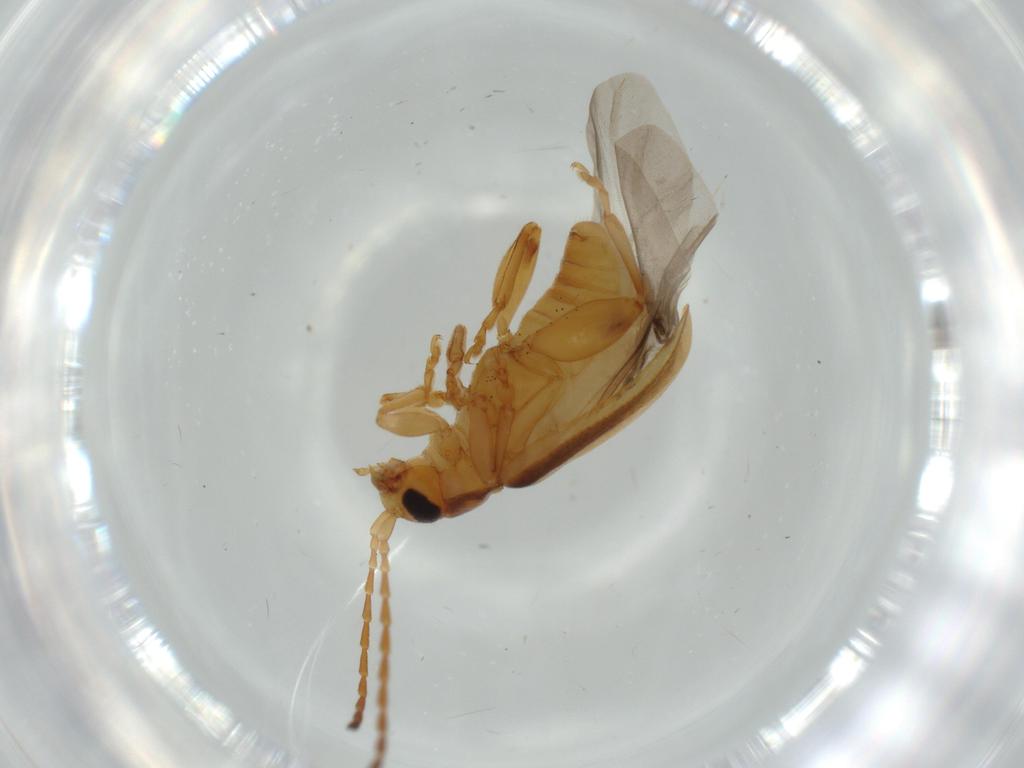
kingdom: Animalia
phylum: Arthropoda
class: Insecta
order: Coleoptera
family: Chrysomelidae
